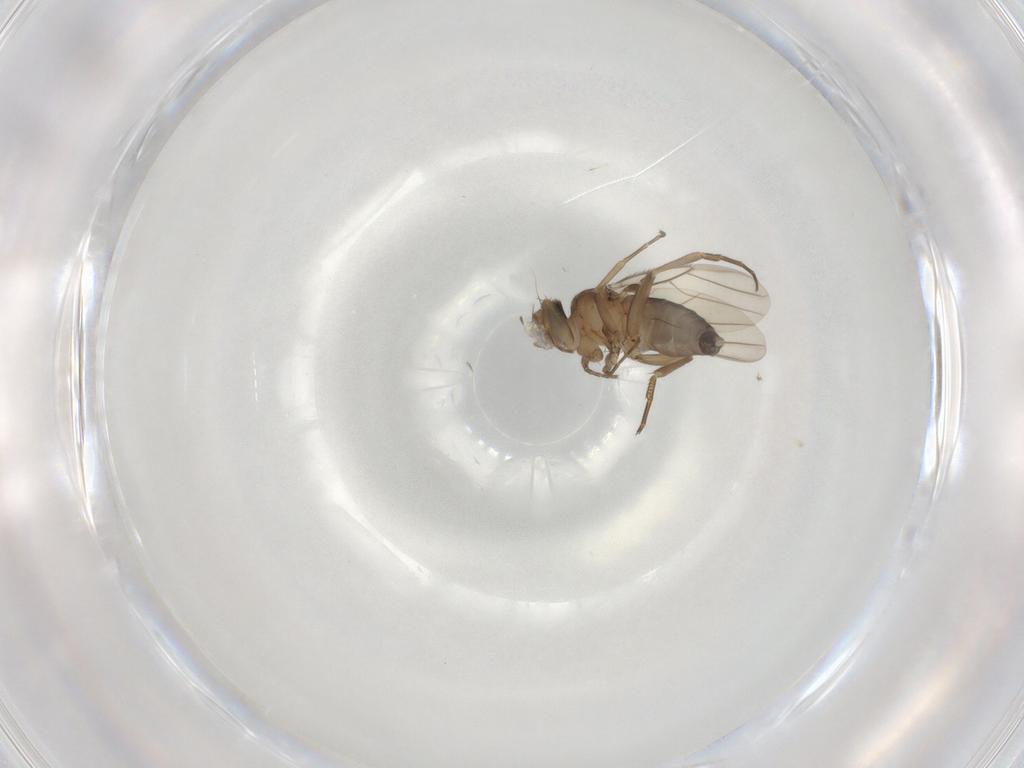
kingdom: Animalia
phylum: Arthropoda
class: Insecta
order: Diptera
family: Phoridae
